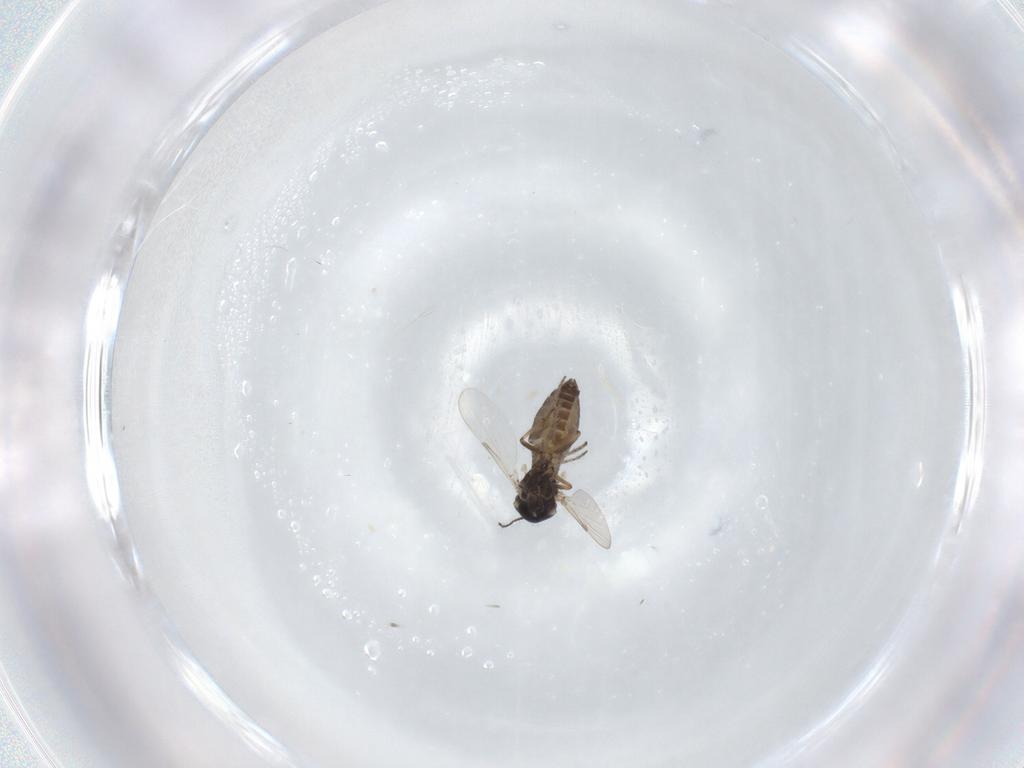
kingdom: Animalia
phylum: Arthropoda
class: Insecta
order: Diptera
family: Ceratopogonidae
